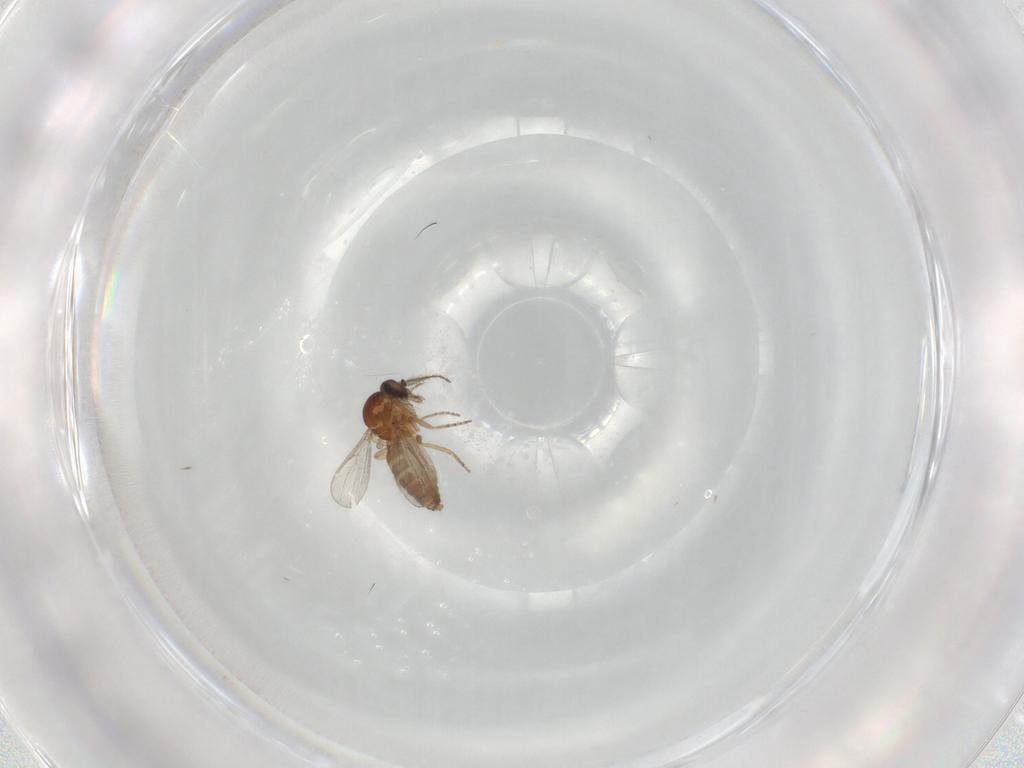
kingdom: Animalia
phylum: Arthropoda
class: Insecta
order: Diptera
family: Ceratopogonidae
